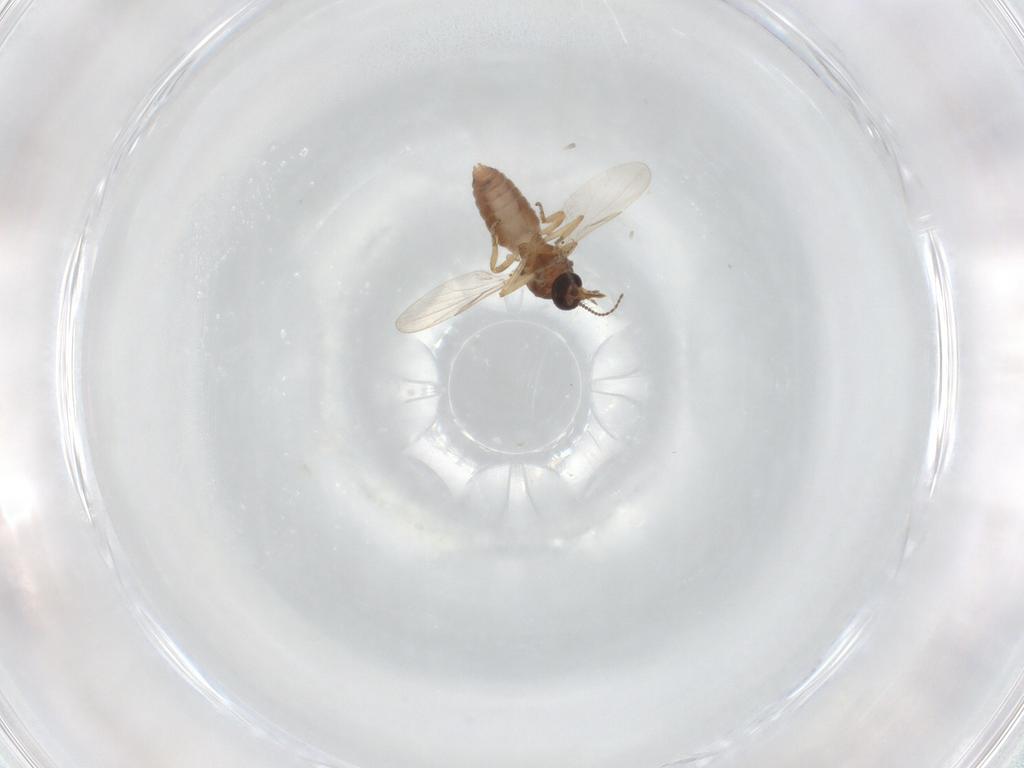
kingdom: Animalia
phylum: Arthropoda
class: Insecta
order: Diptera
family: Ceratopogonidae
